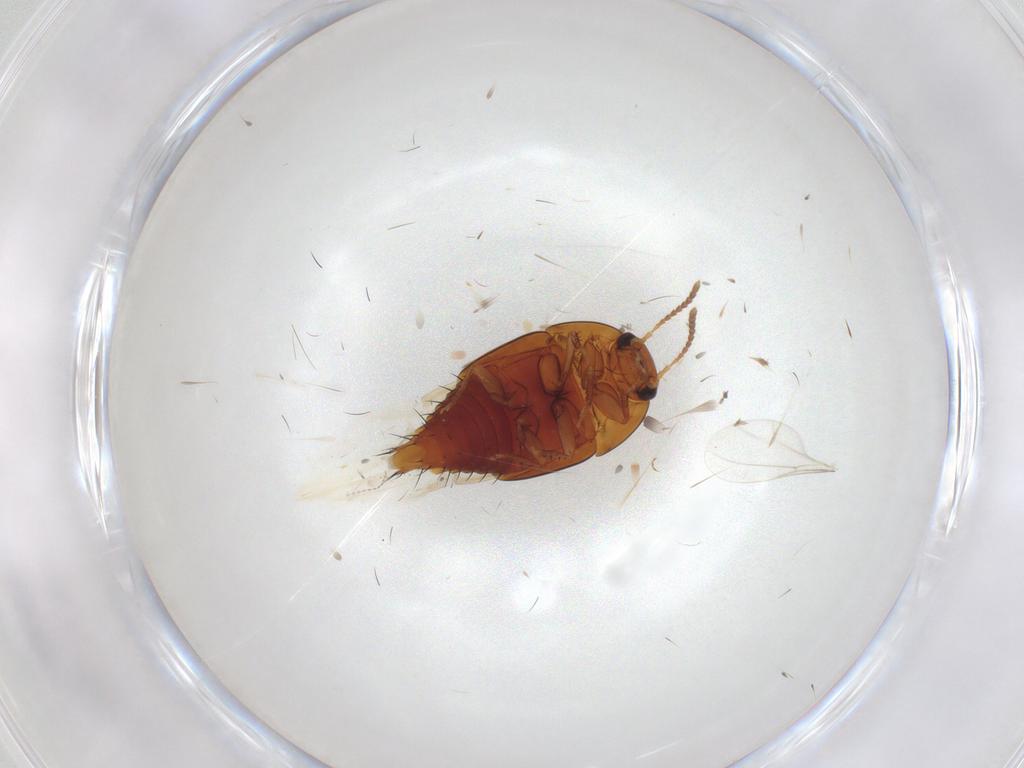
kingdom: Animalia
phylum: Arthropoda
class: Insecta
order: Coleoptera
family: Staphylinidae
